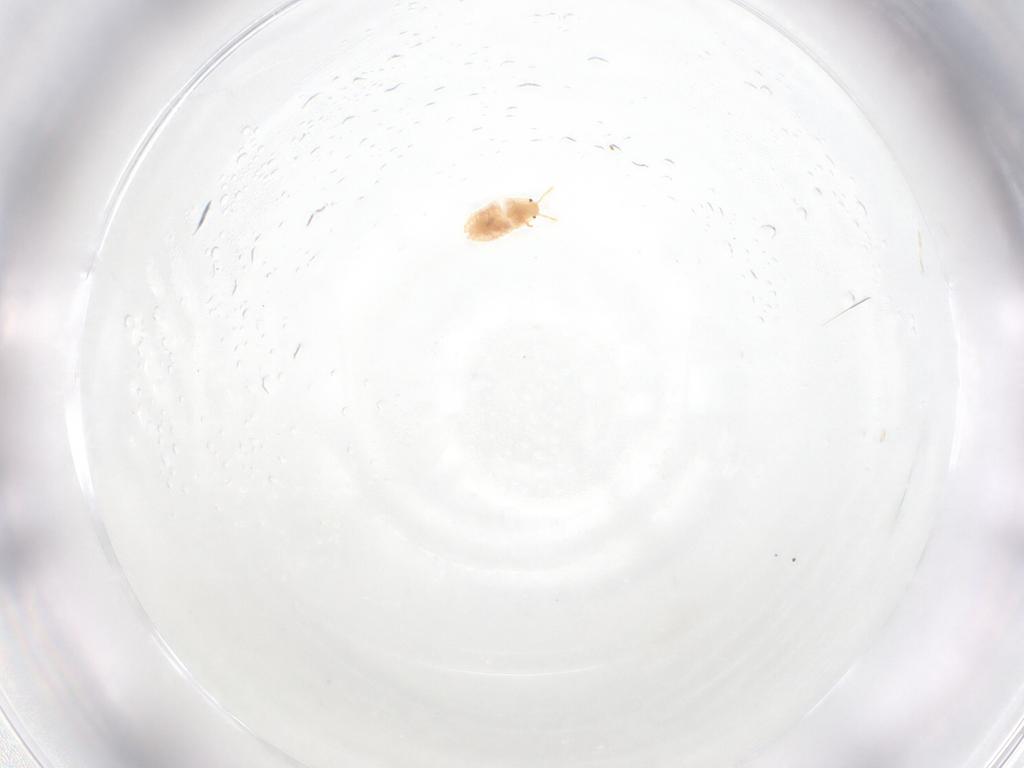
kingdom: Animalia
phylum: Arthropoda
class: Insecta
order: Hymenoptera
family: Encyrtidae
